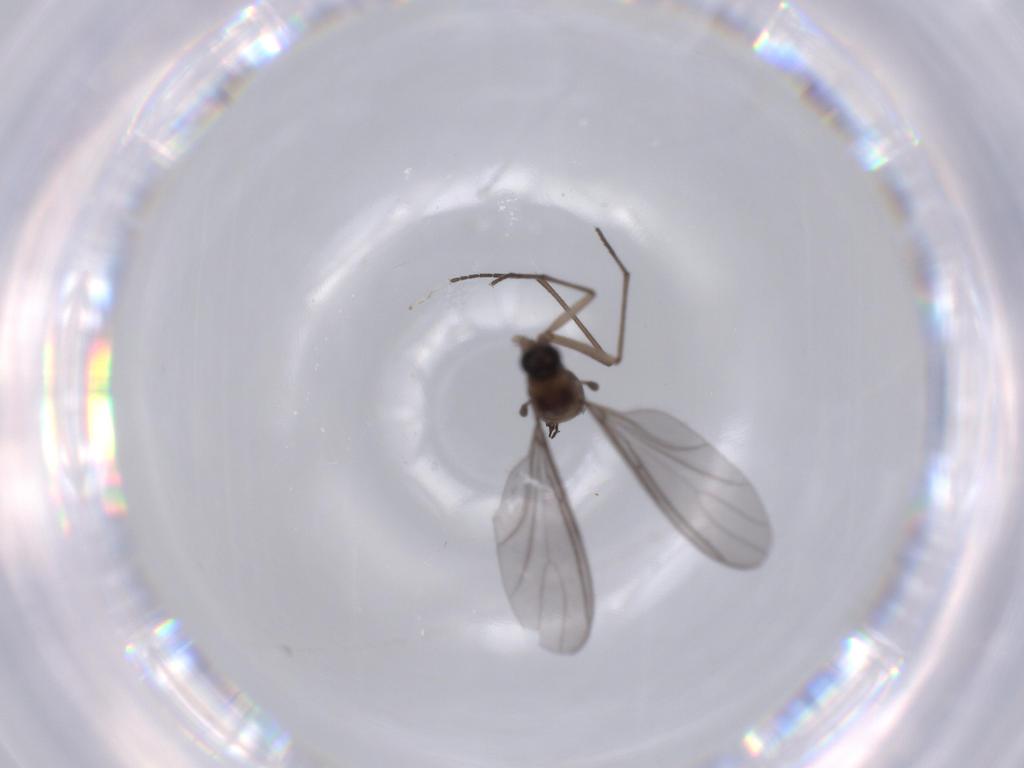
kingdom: Animalia
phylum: Arthropoda
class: Insecta
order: Diptera
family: Sciaridae
